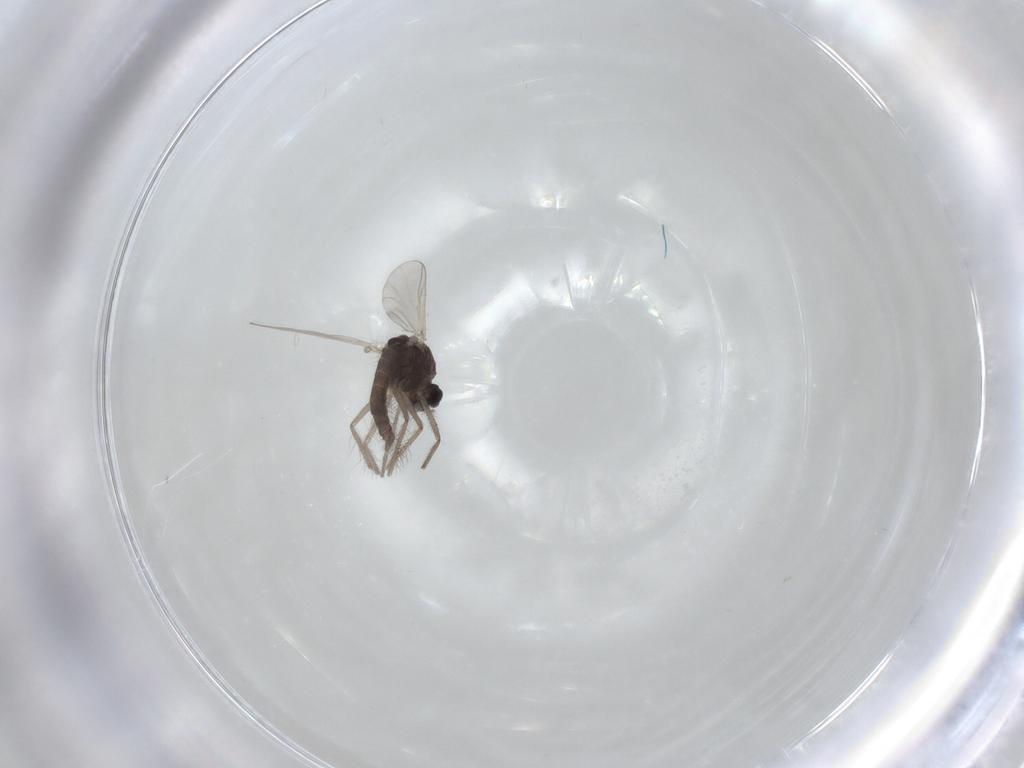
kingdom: Animalia
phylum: Arthropoda
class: Insecta
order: Diptera
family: Chironomidae
